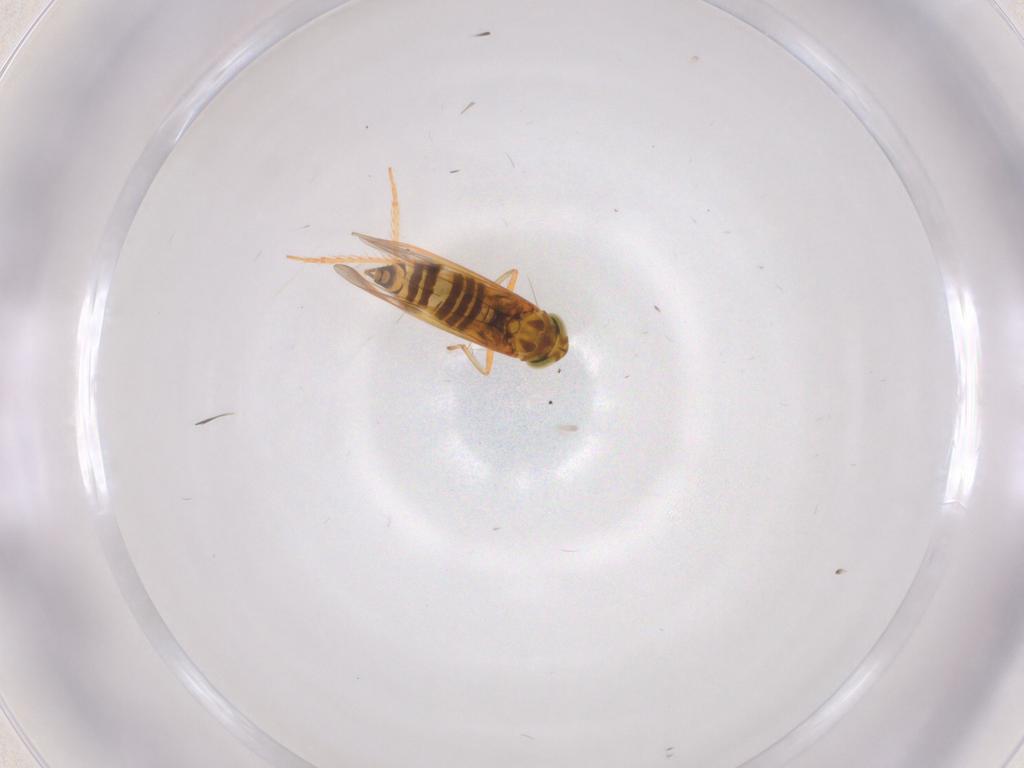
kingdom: Animalia
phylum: Arthropoda
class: Insecta
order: Hemiptera
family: Cicadellidae
